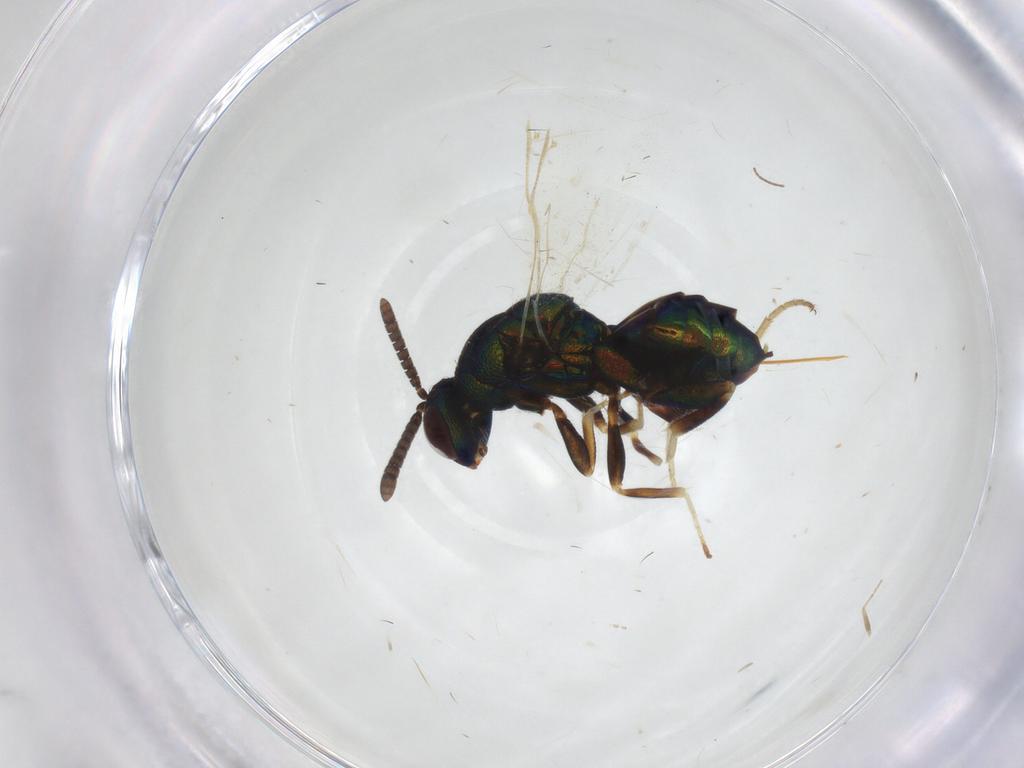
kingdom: Animalia
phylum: Arthropoda
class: Insecta
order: Hymenoptera
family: Torymidae
